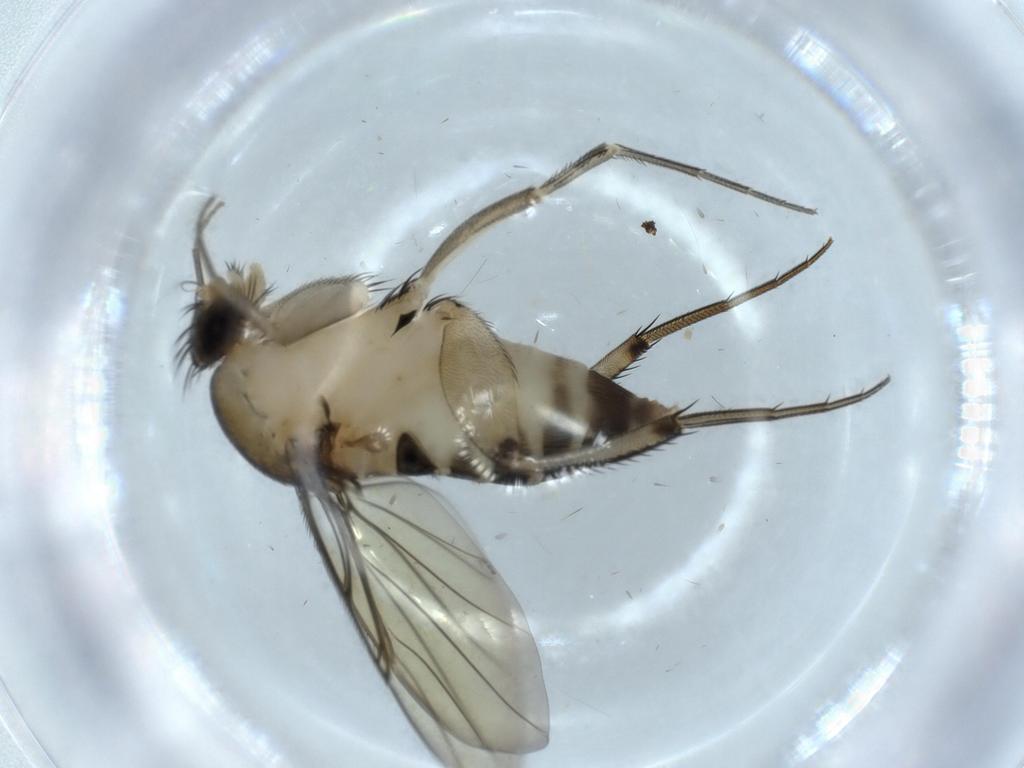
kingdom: Animalia
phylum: Arthropoda
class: Insecta
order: Diptera
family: Phoridae
